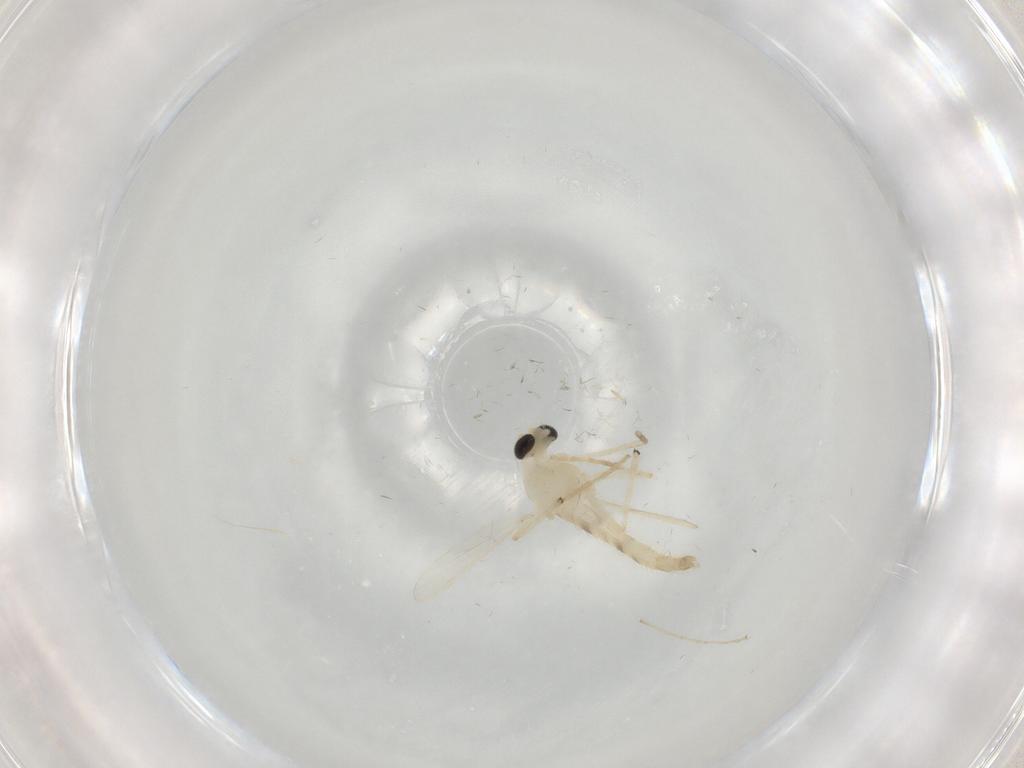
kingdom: Animalia
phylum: Arthropoda
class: Insecta
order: Diptera
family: Chironomidae
